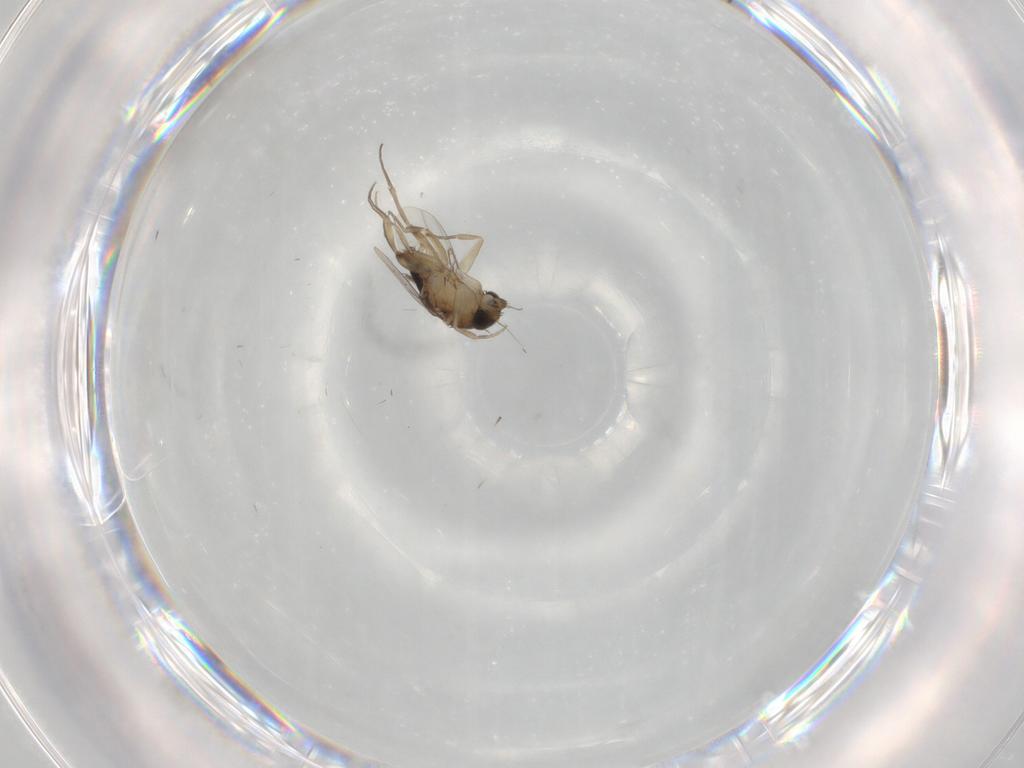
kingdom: Animalia
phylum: Arthropoda
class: Insecta
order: Diptera
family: Phoridae
